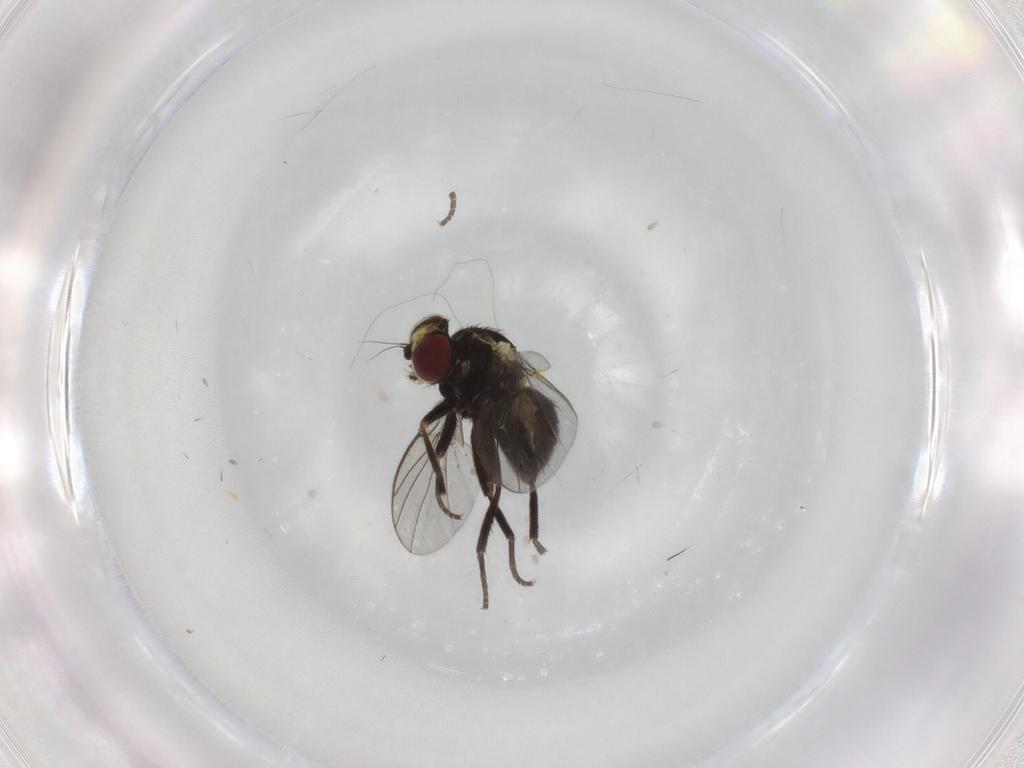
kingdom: Animalia
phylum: Arthropoda
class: Insecta
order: Diptera
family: Agromyzidae
